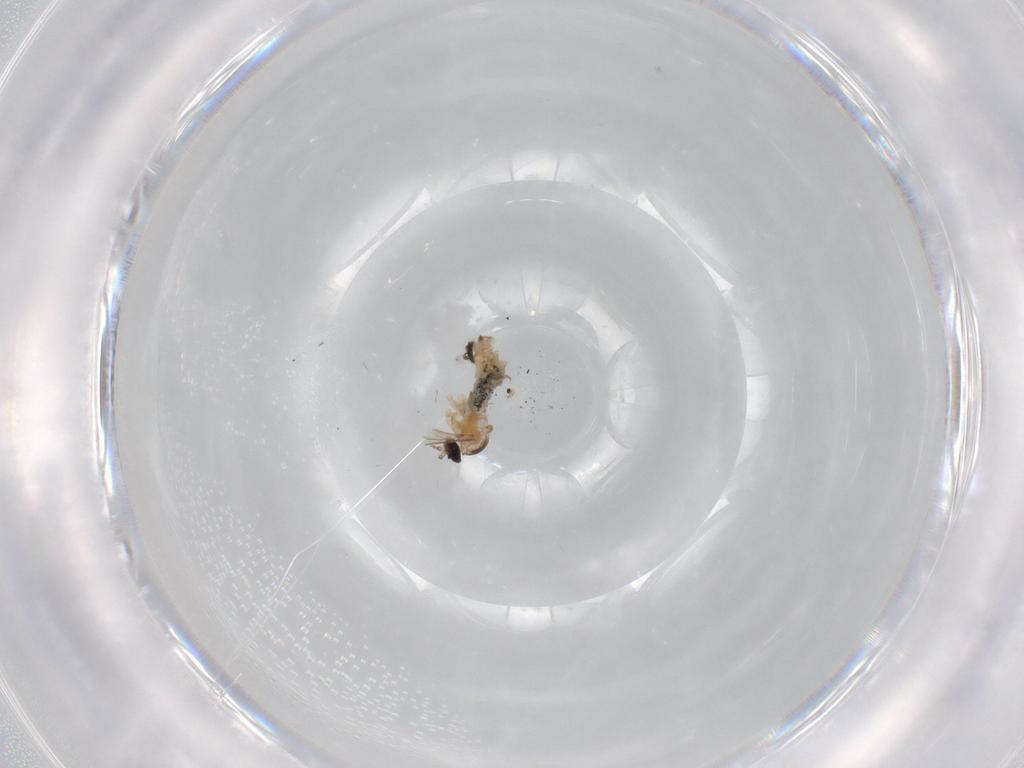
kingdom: Animalia
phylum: Arthropoda
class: Insecta
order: Diptera
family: Cecidomyiidae
